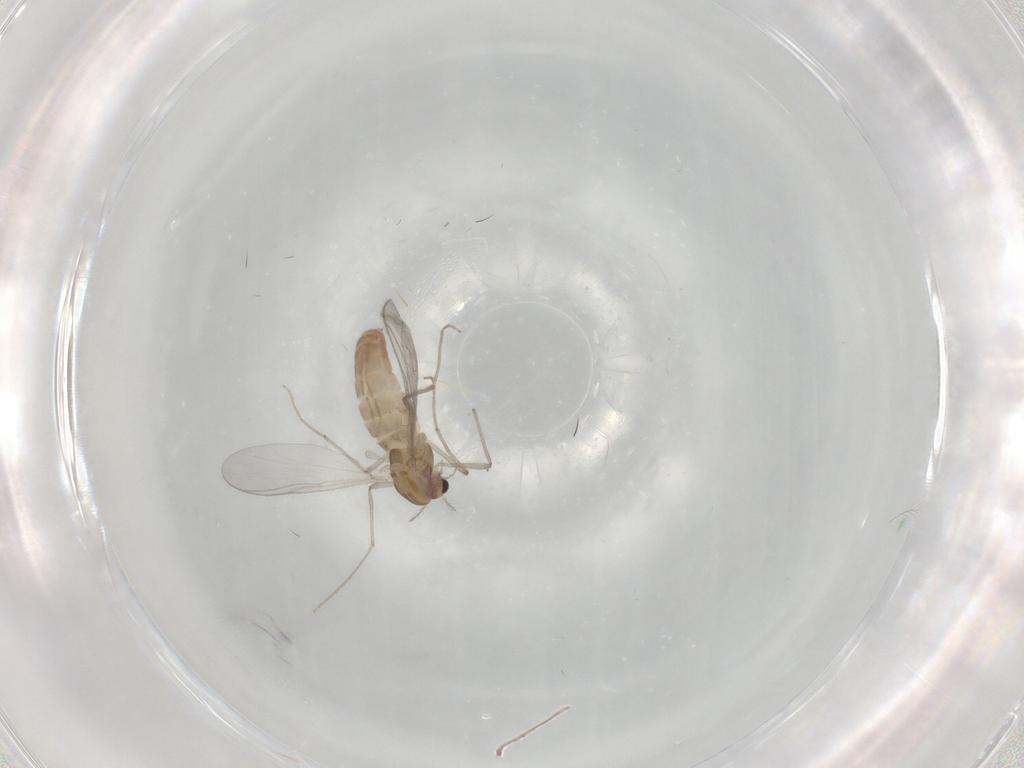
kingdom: Animalia
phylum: Arthropoda
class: Insecta
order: Diptera
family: Chironomidae
